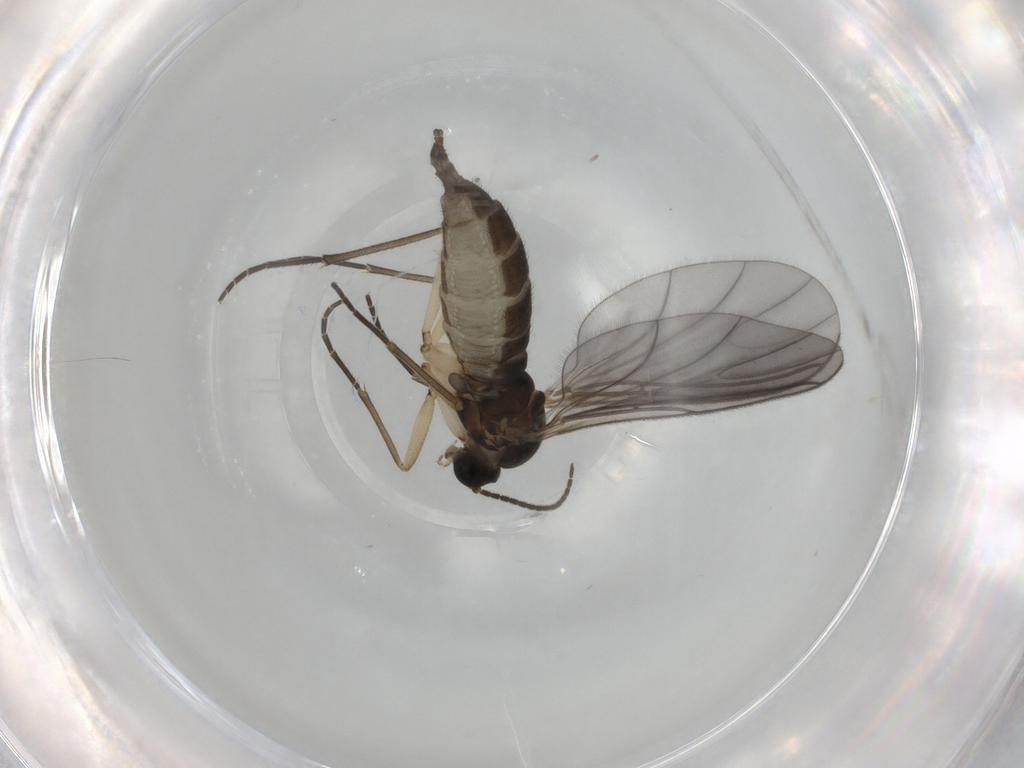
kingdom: Animalia
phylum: Arthropoda
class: Insecta
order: Diptera
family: Sciaridae
